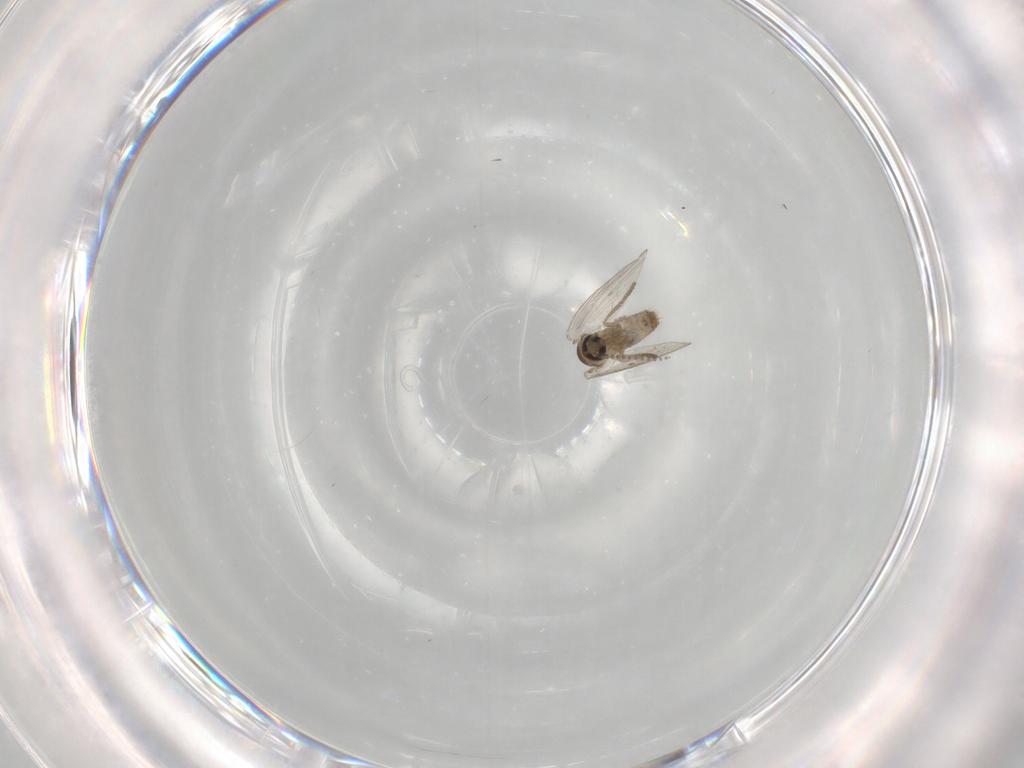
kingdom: Animalia
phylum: Arthropoda
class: Insecta
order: Diptera
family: Psychodidae
